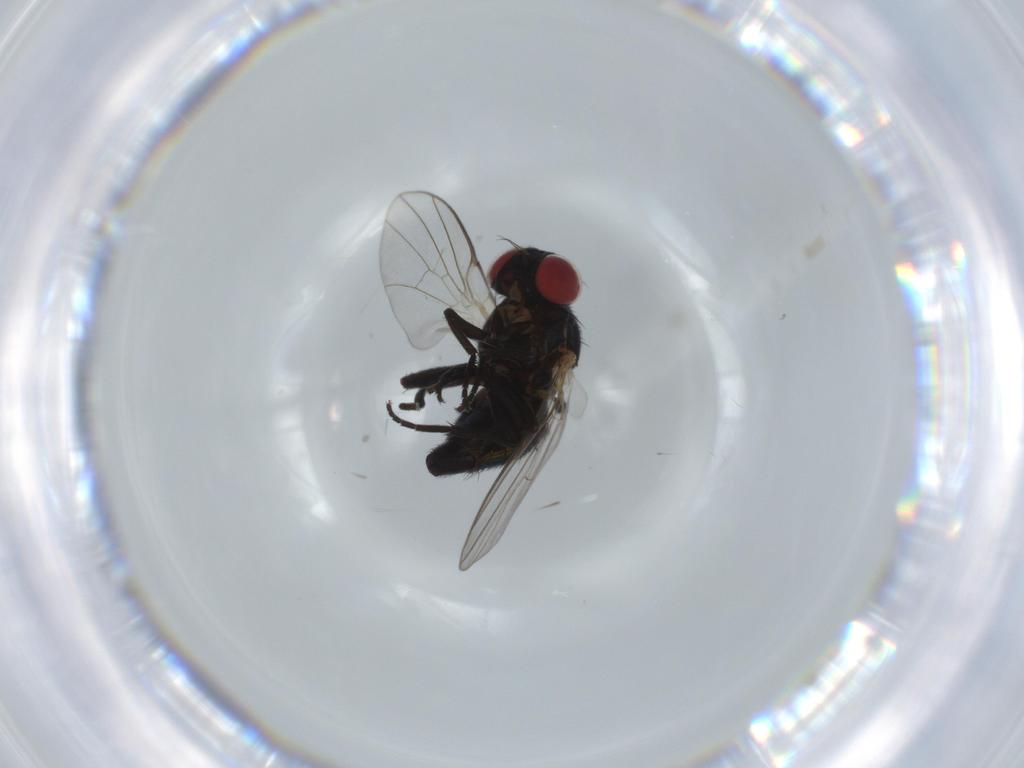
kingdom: Animalia
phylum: Arthropoda
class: Insecta
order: Diptera
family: Agromyzidae
